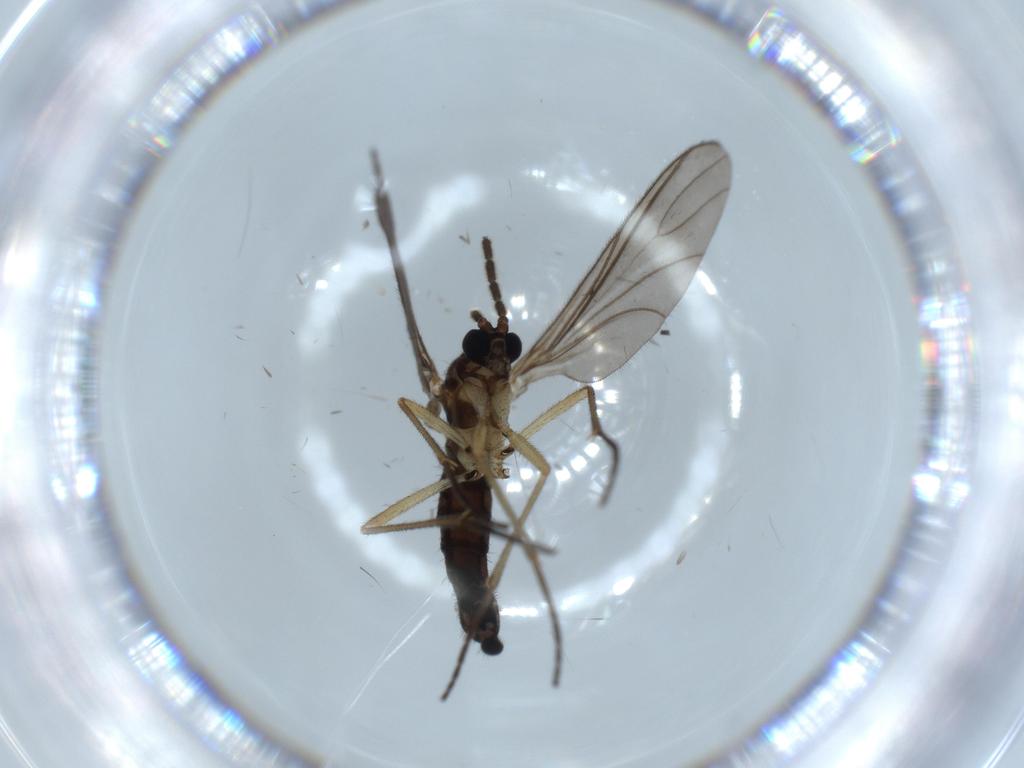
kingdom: Animalia
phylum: Arthropoda
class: Insecta
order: Diptera
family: Sciaridae
